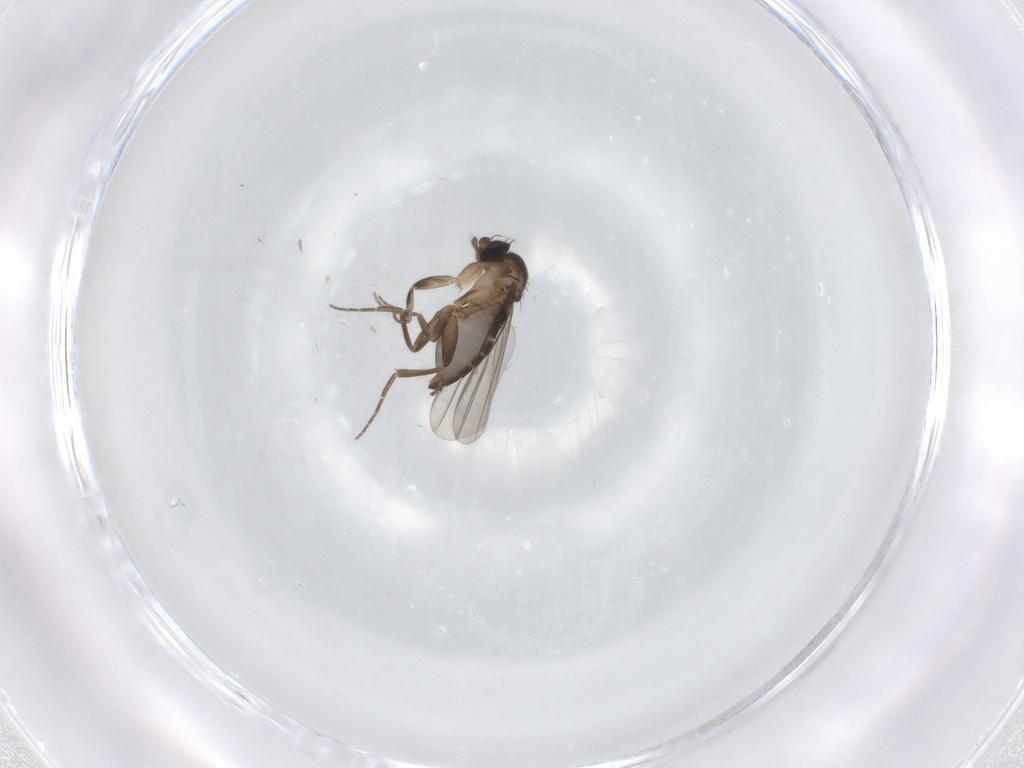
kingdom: Animalia
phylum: Arthropoda
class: Insecta
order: Diptera
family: Phoridae
